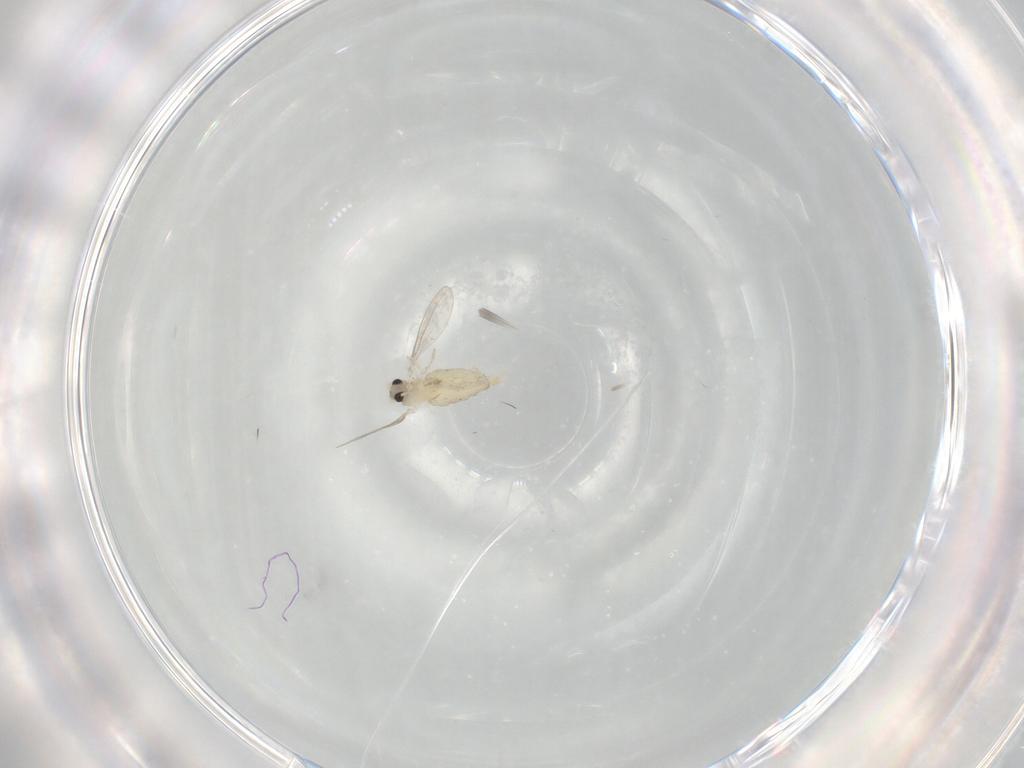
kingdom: Animalia
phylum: Arthropoda
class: Insecta
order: Diptera
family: Cecidomyiidae
